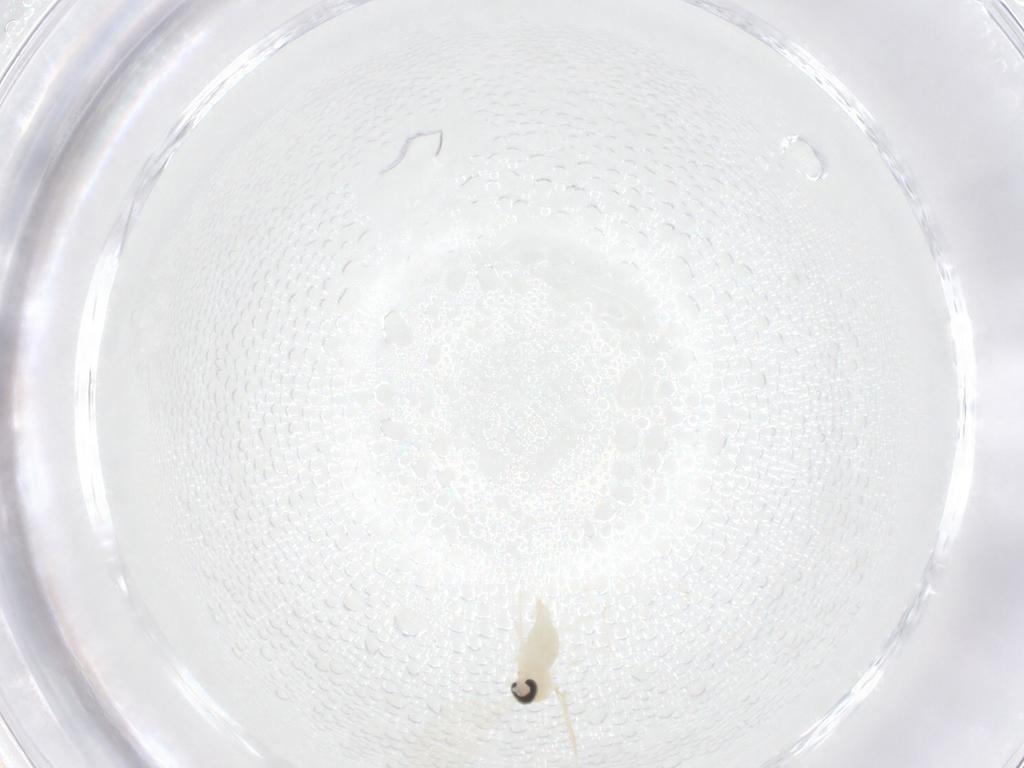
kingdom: Animalia
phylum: Arthropoda
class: Insecta
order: Diptera
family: Cecidomyiidae
